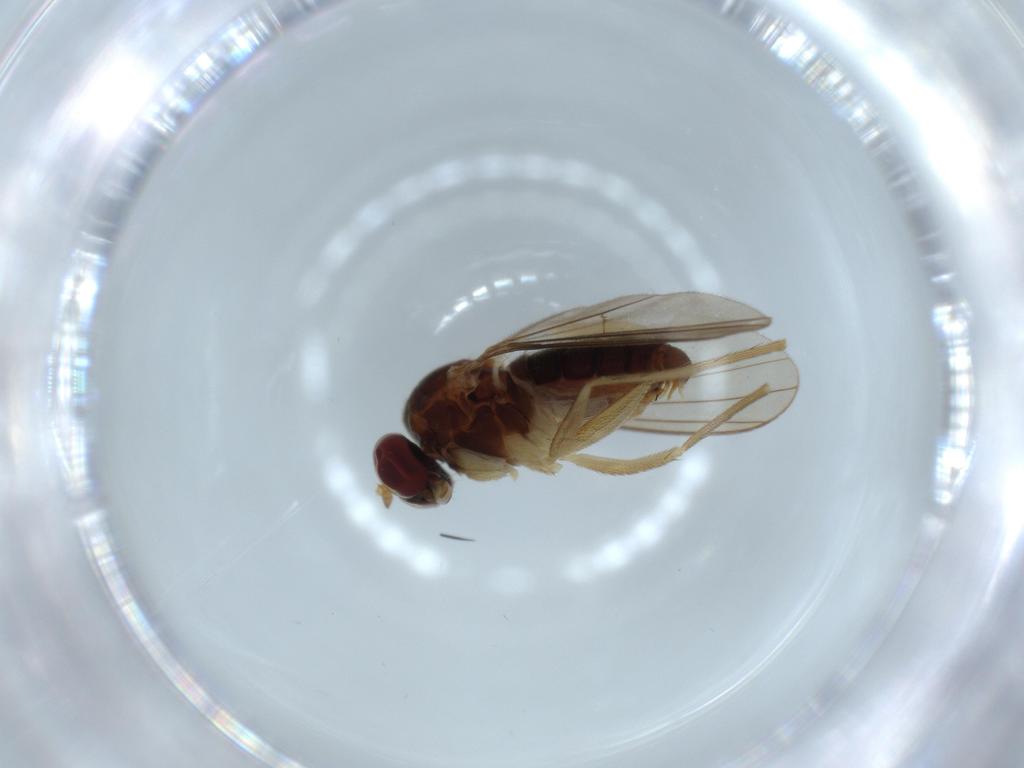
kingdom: Animalia
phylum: Arthropoda
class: Insecta
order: Diptera
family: Dolichopodidae
